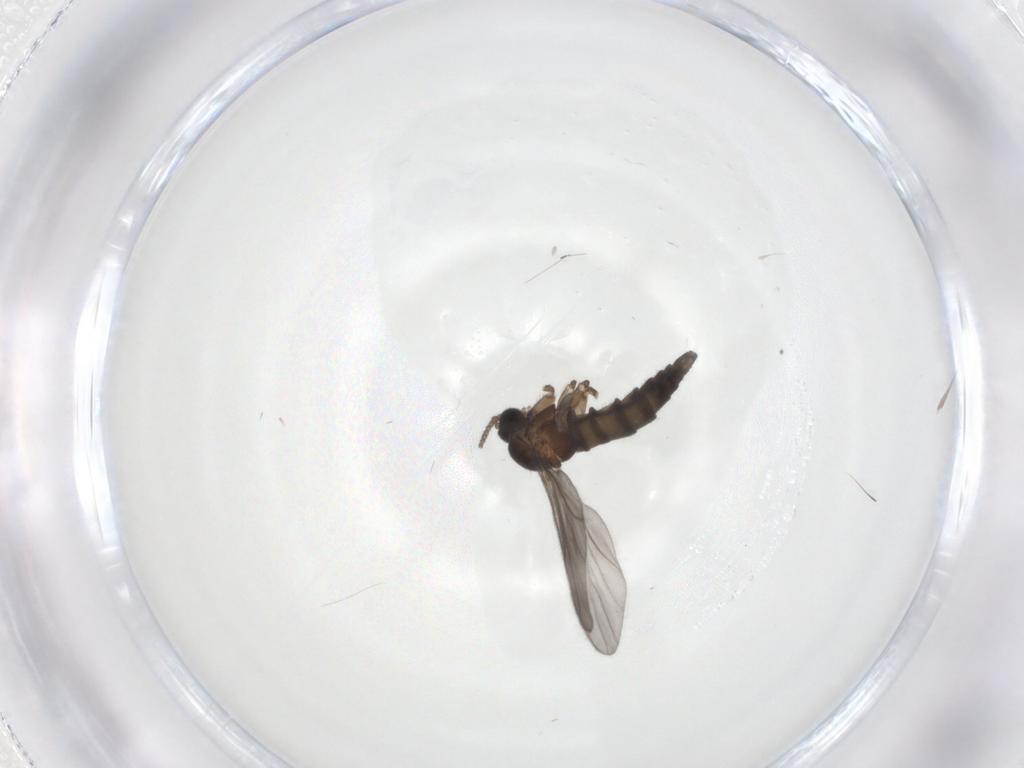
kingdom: Animalia
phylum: Arthropoda
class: Insecta
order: Diptera
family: Sciaridae
